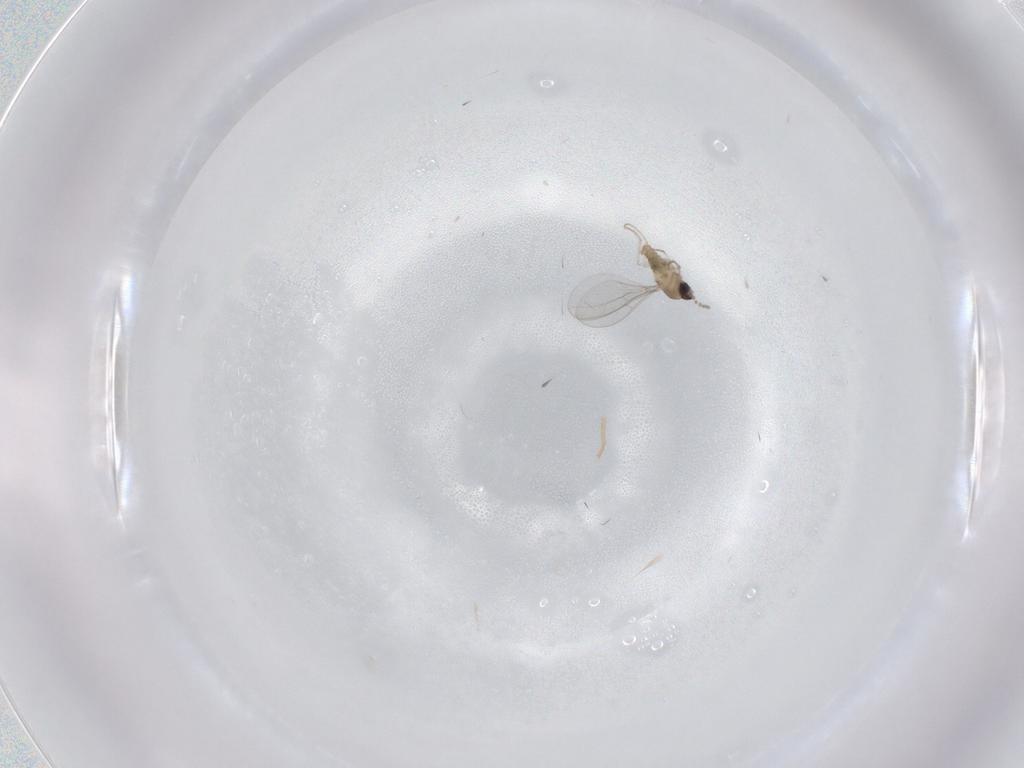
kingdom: Animalia
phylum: Arthropoda
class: Insecta
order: Diptera
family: Cecidomyiidae
